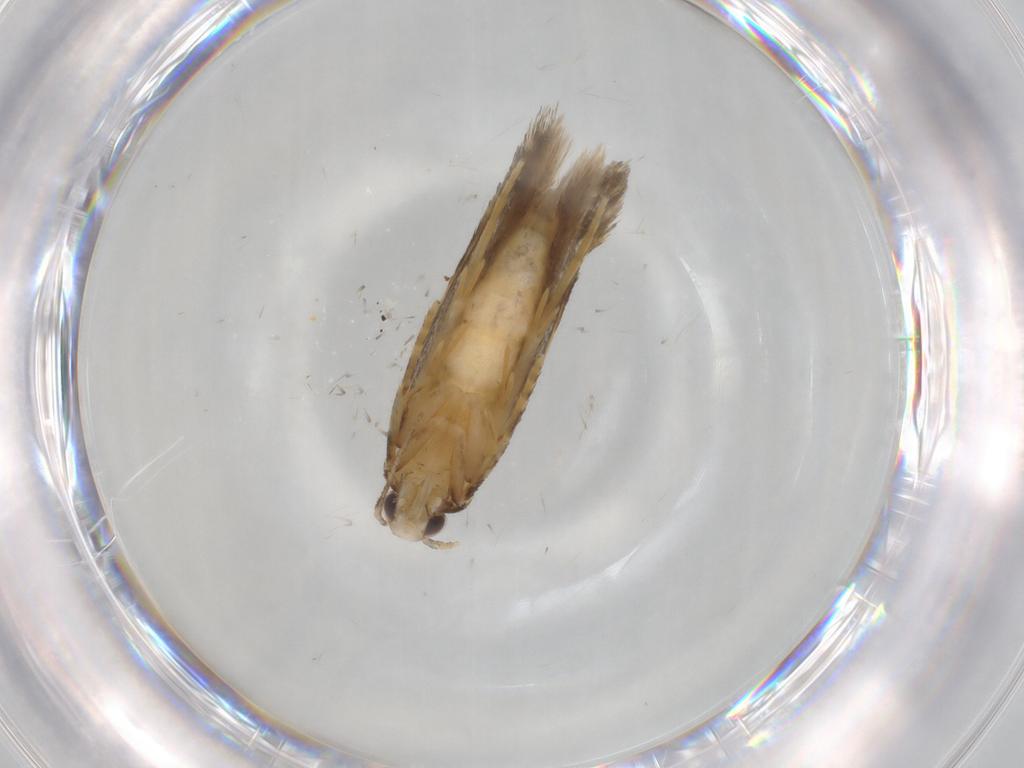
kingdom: Animalia
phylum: Arthropoda
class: Insecta
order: Lepidoptera
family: Autostichidae
